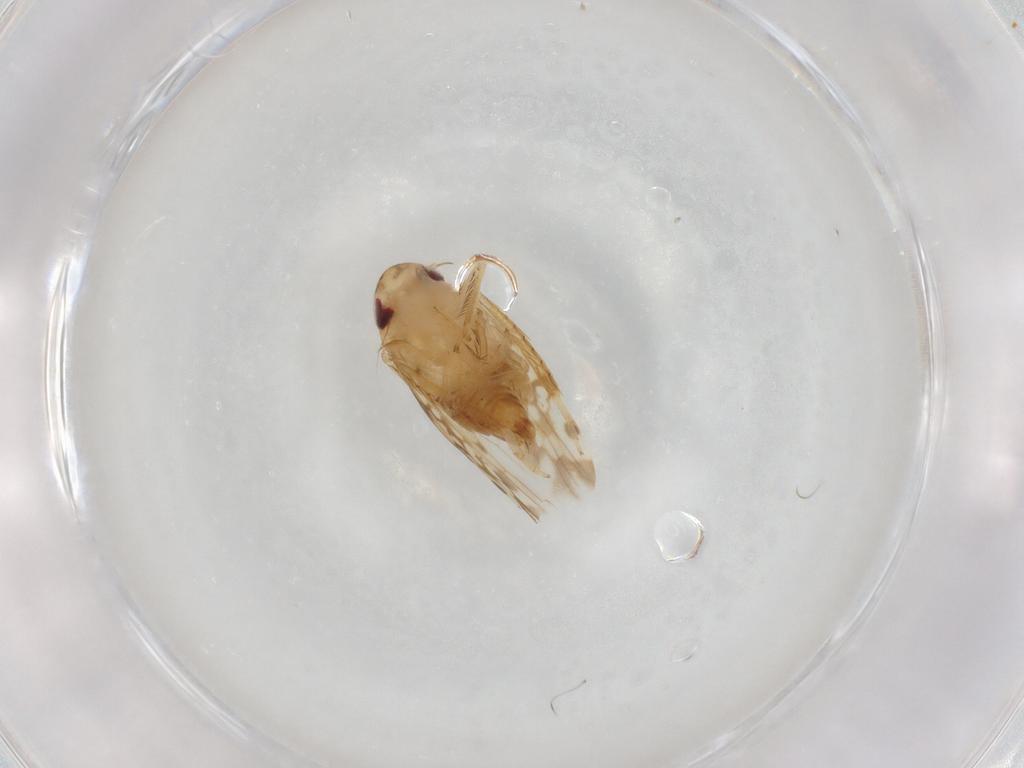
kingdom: Animalia
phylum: Arthropoda
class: Insecta
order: Hemiptera
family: Cicadellidae
